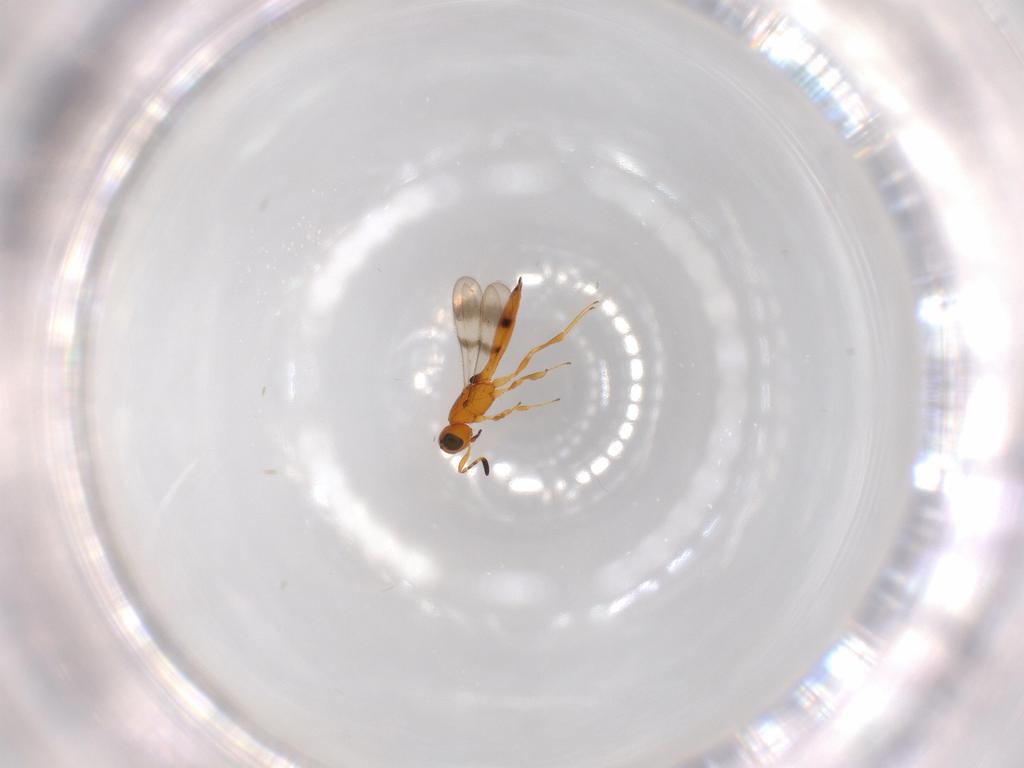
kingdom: Animalia
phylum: Arthropoda
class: Insecta
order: Hymenoptera
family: Scelionidae
